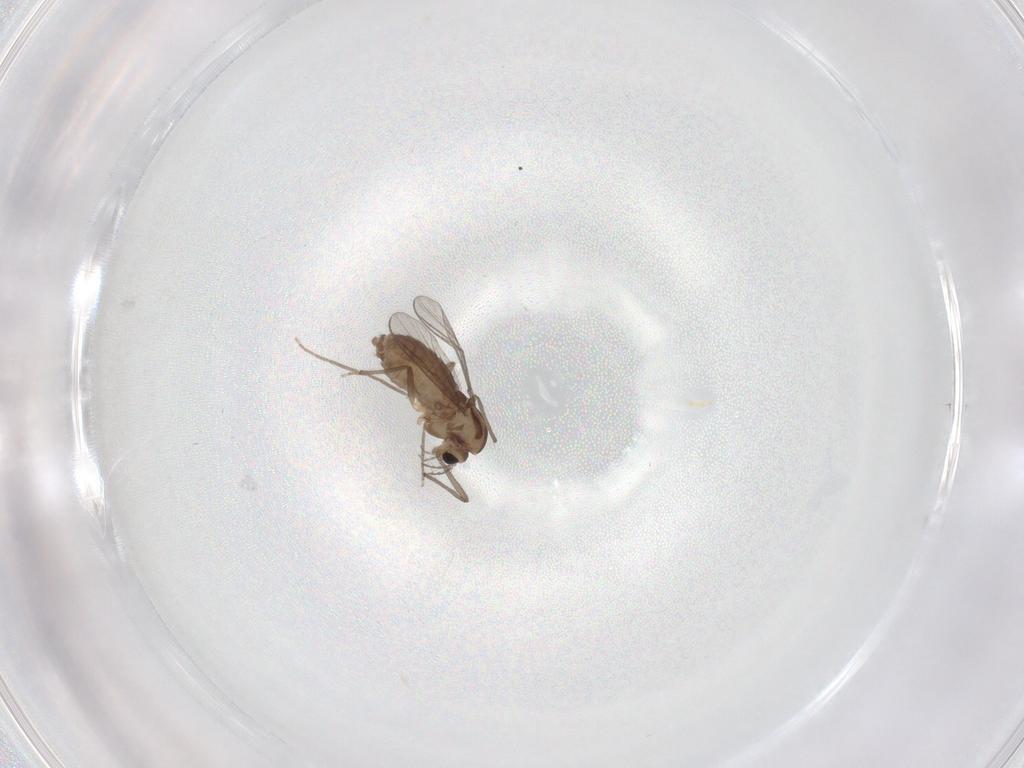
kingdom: Animalia
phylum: Arthropoda
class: Insecta
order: Diptera
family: Chironomidae
